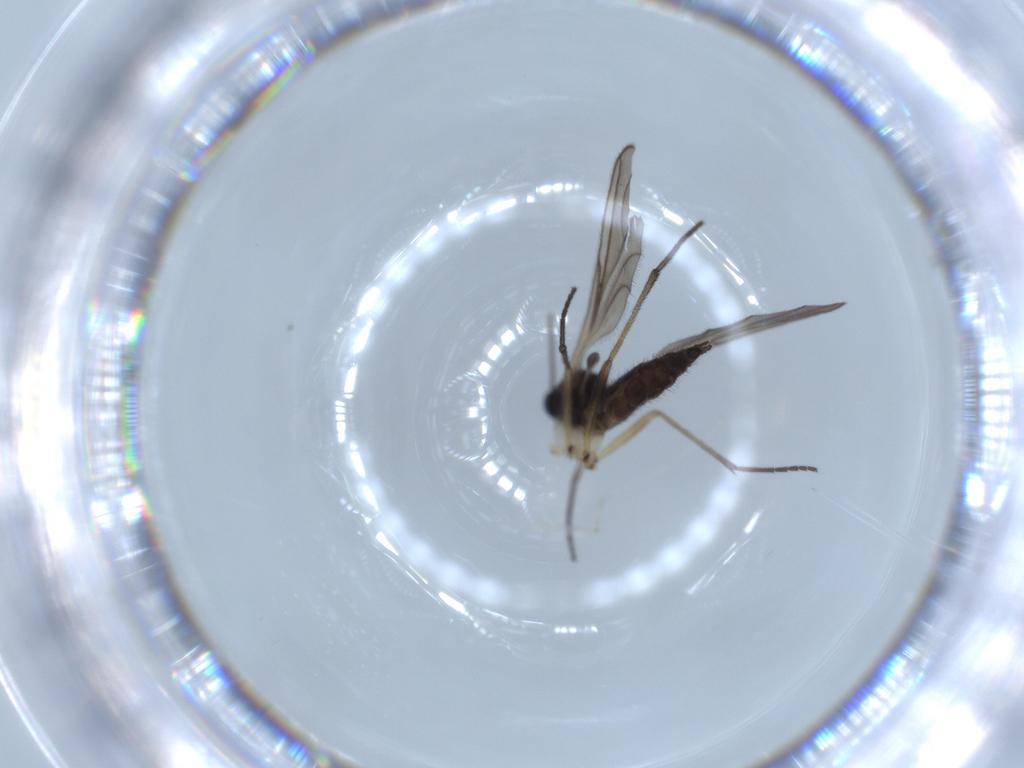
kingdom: Animalia
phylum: Arthropoda
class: Insecta
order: Diptera
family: Sciaridae
